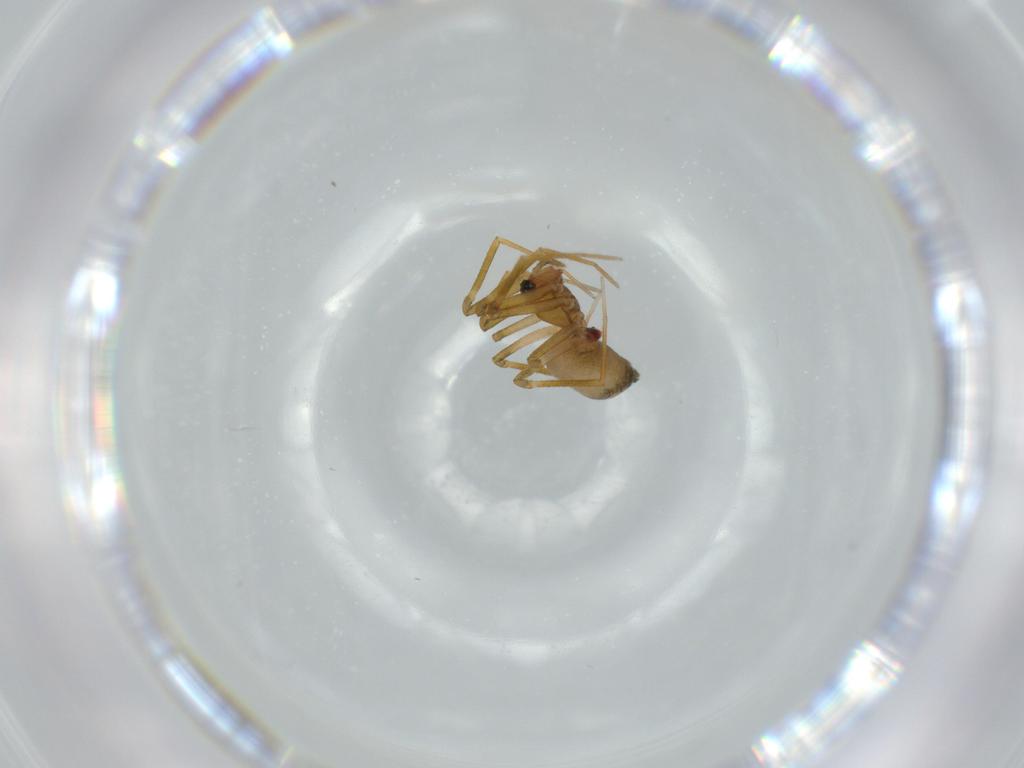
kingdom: Animalia
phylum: Arthropoda
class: Arachnida
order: Araneae
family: Linyphiidae
